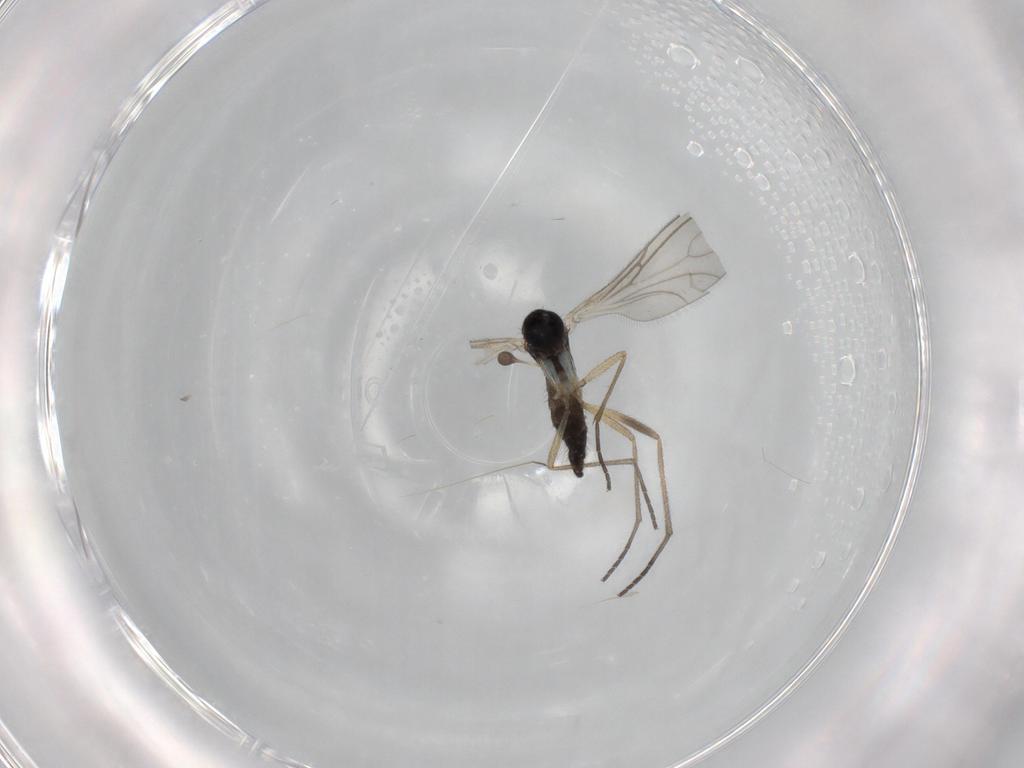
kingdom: Animalia
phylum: Arthropoda
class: Insecta
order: Diptera
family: Sciaridae
